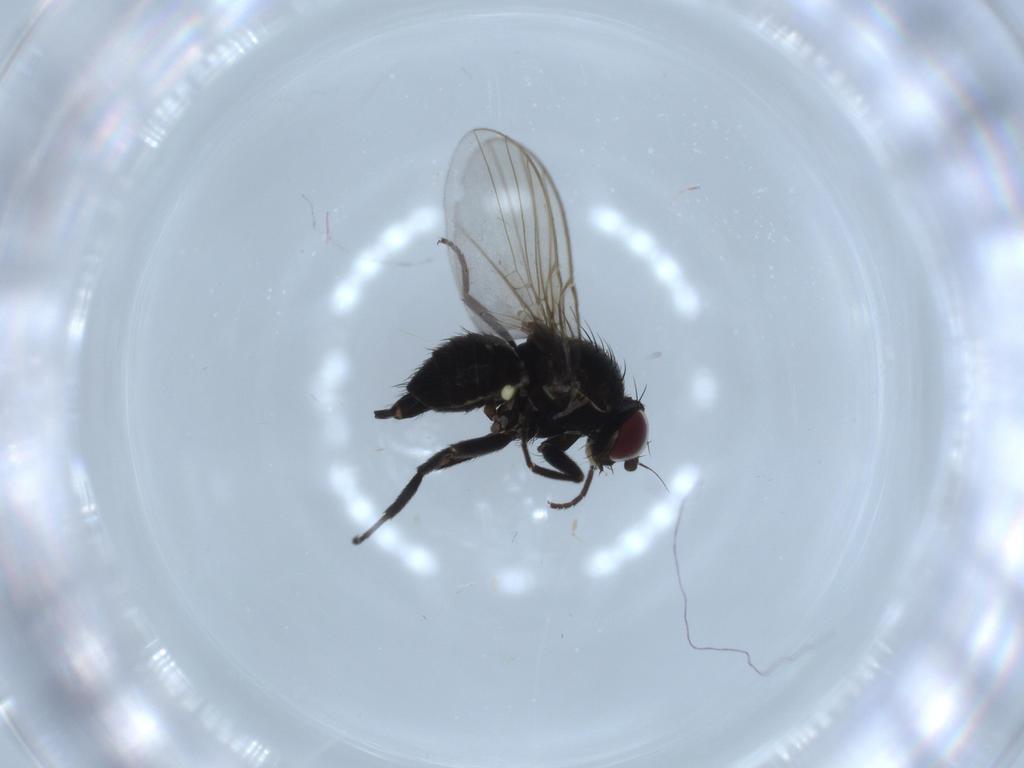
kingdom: Animalia
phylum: Arthropoda
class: Insecta
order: Diptera
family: Agromyzidae
